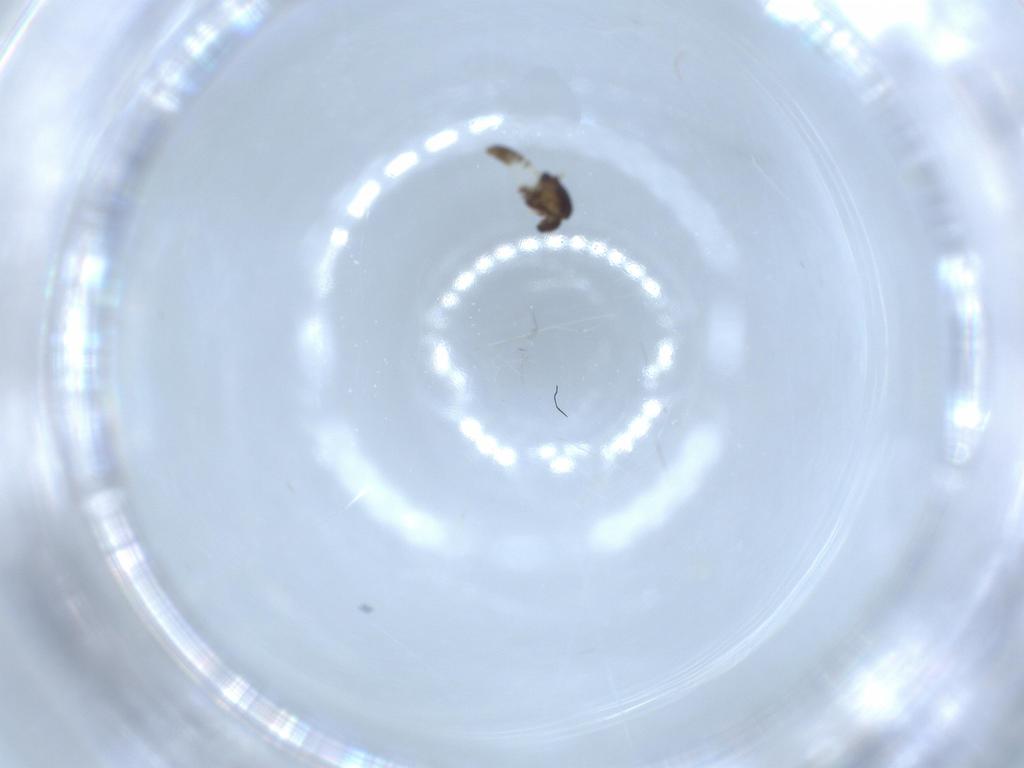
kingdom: Animalia
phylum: Arthropoda
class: Insecta
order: Diptera
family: Chironomidae
